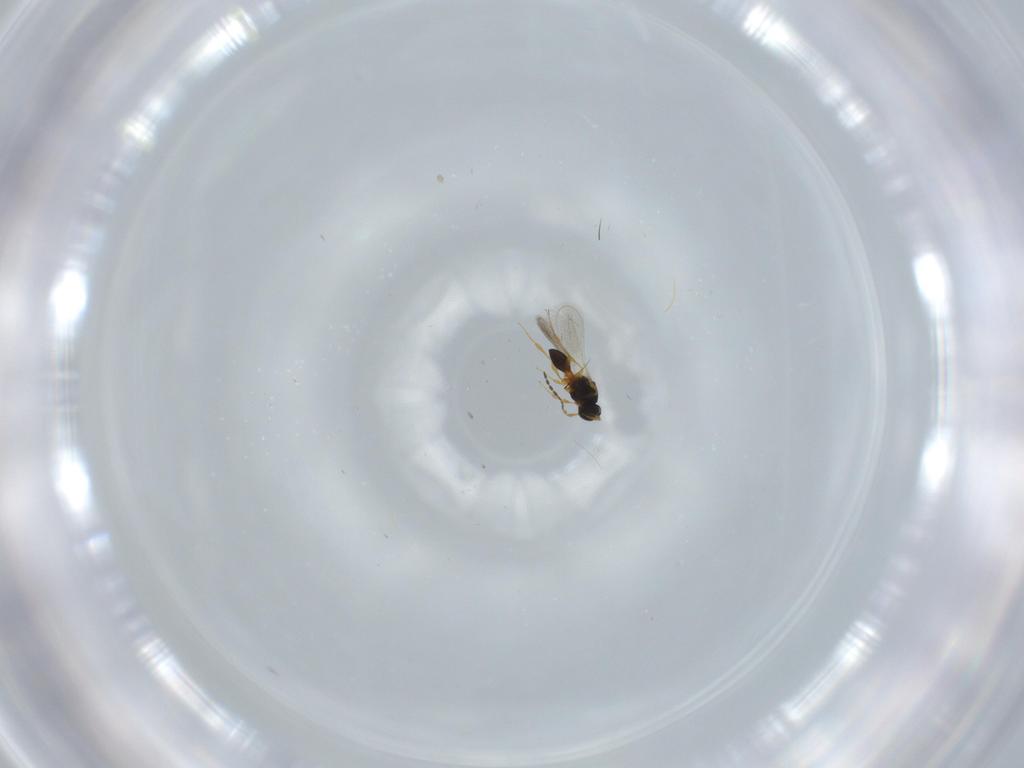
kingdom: Animalia
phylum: Arthropoda
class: Insecta
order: Hymenoptera
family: Platygastridae
